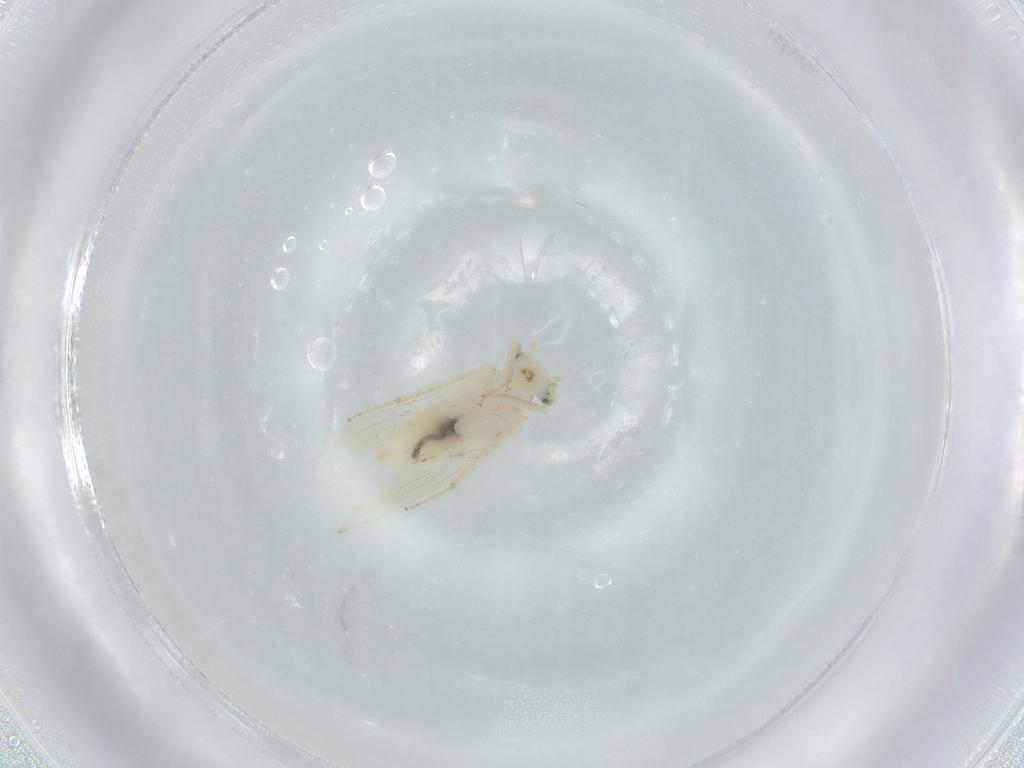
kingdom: Animalia
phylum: Arthropoda
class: Insecta
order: Psocodea
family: Lepidopsocidae
